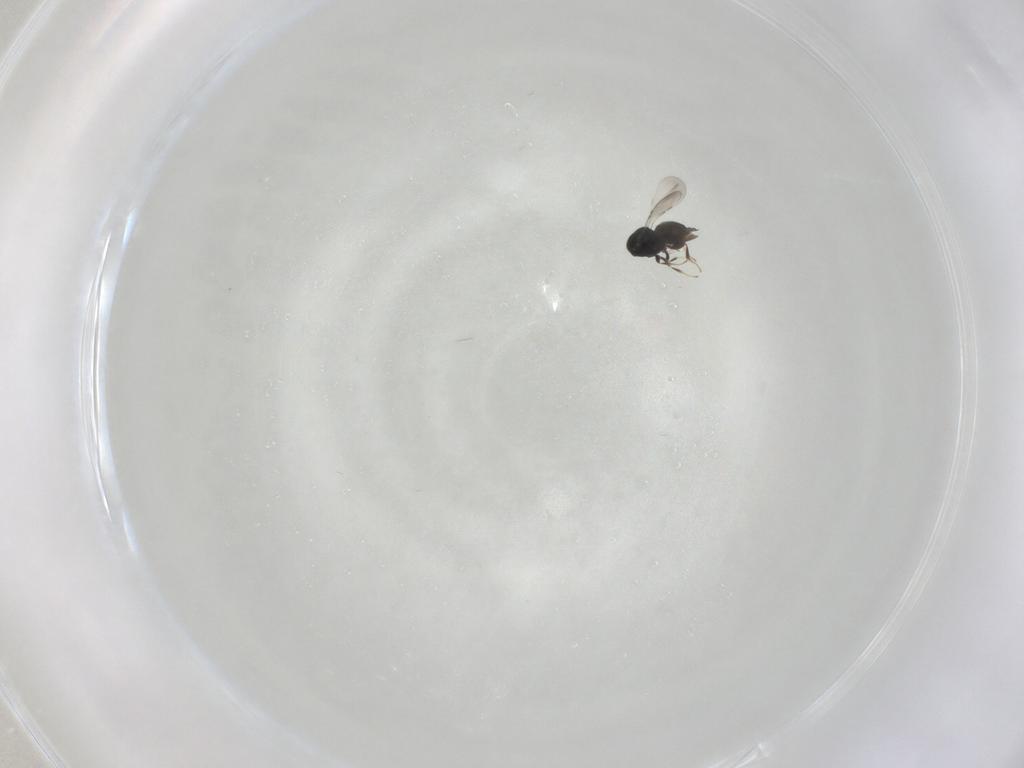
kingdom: Animalia
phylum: Arthropoda
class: Insecta
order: Hymenoptera
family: Scelionidae
